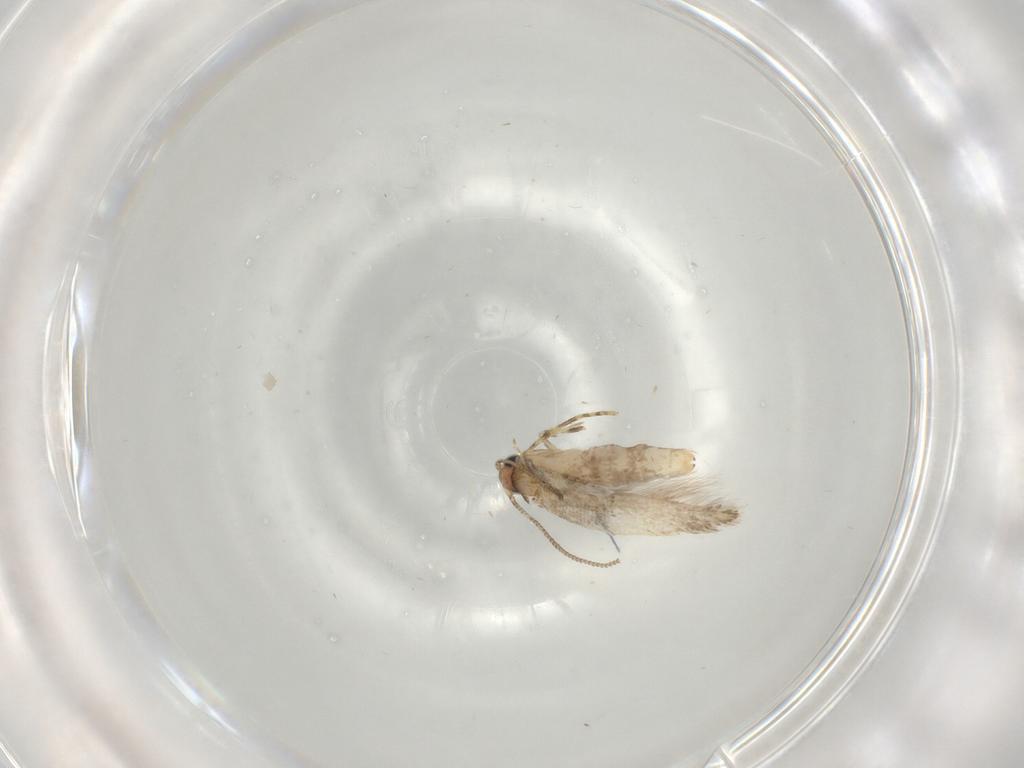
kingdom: Animalia
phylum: Arthropoda
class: Insecta
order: Lepidoptera
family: Tineidae
